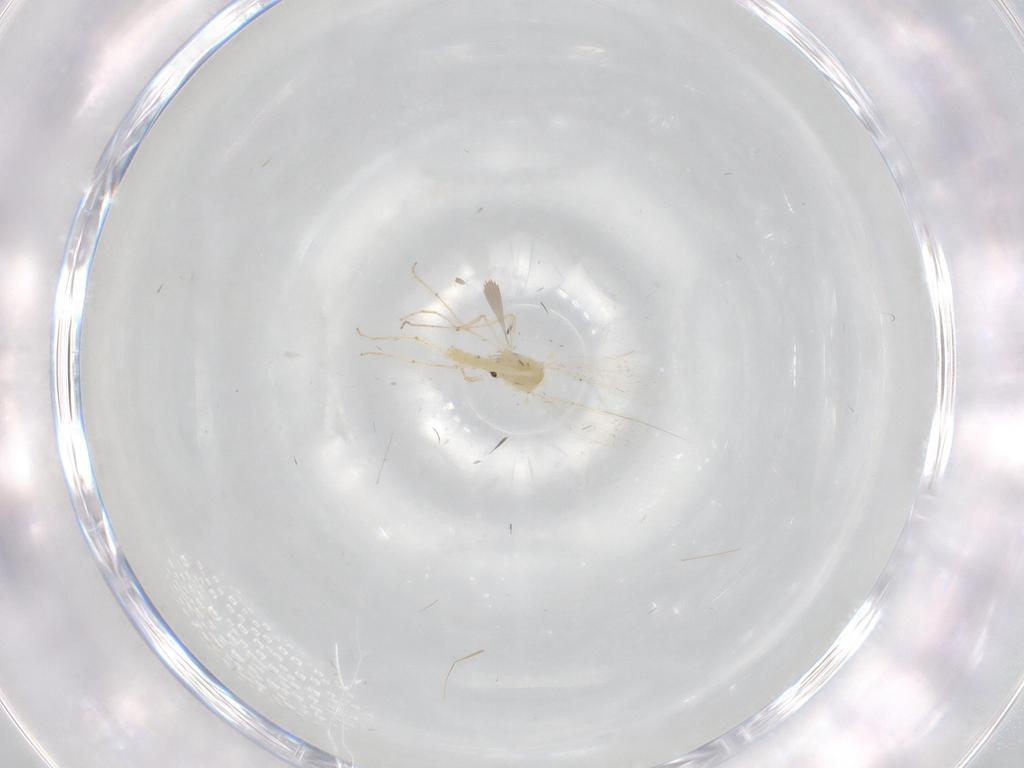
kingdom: Animalia
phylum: Arthropoda
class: Insecta
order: Diptera
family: Chironomidae
